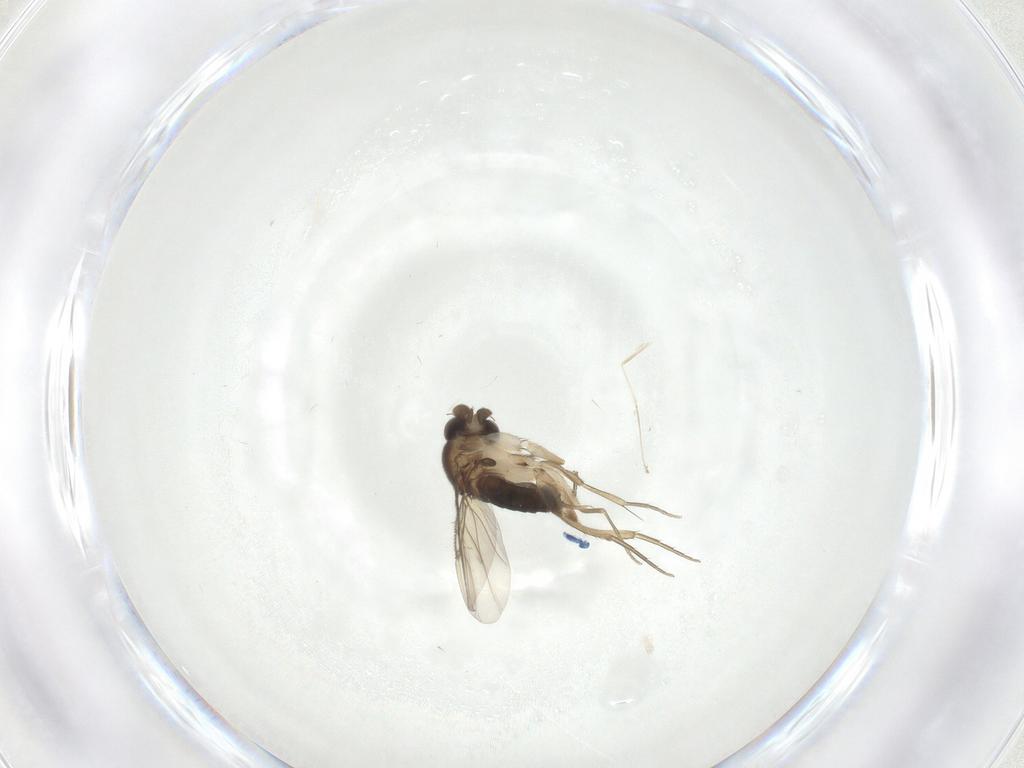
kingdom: Animalia
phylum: Arthropoda
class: Insecta
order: Diptera
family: Phoridae
